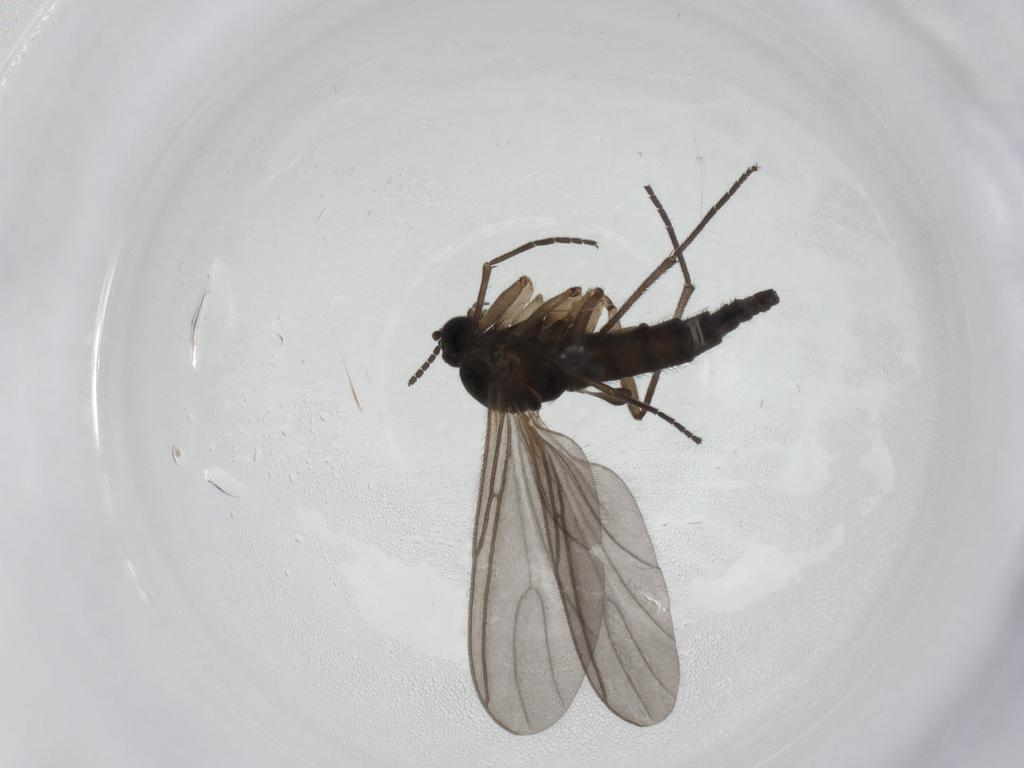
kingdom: Animalia
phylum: Arthropoda
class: Insecta
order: Diptera
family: Sciaridae
